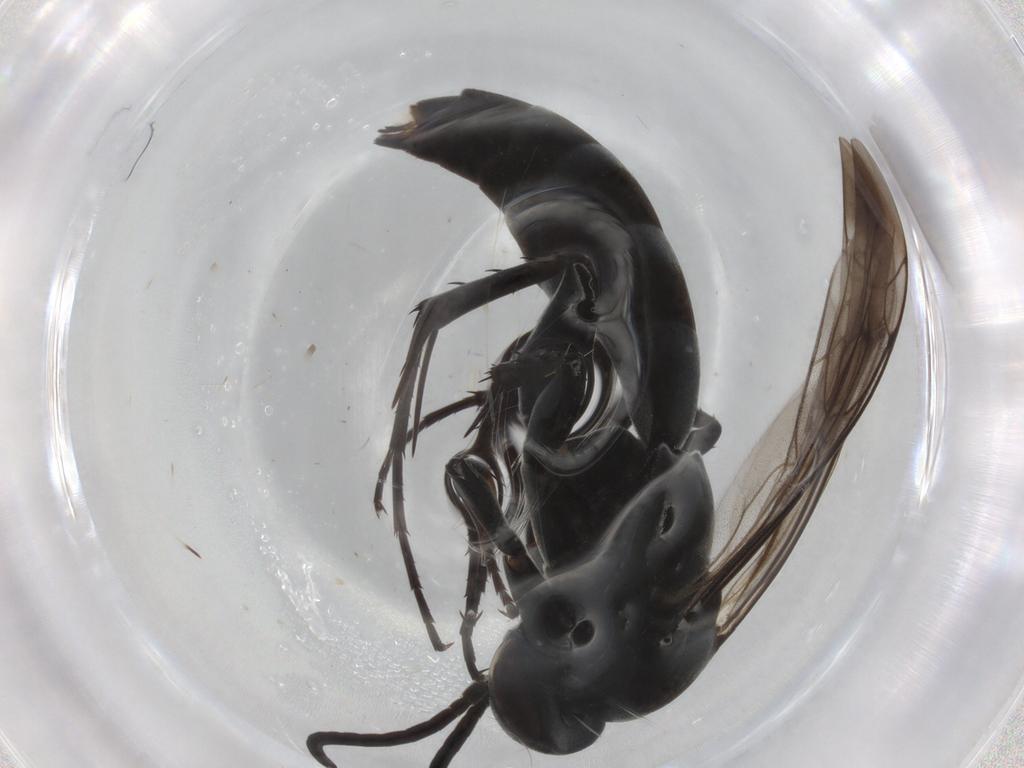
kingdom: Animalia
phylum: Arthropoda
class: Insecta
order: Hymenoptera
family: Pompilidae
